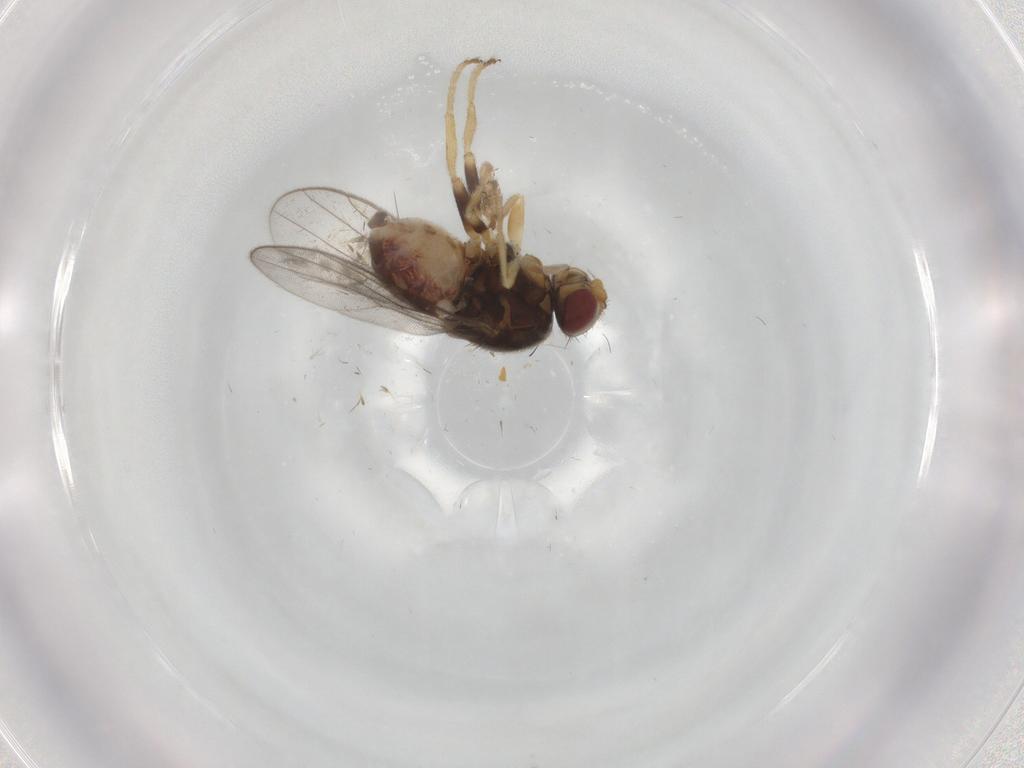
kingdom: Animalia
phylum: Arthropoda
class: Insecta
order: Diptera
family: Chloropidae
